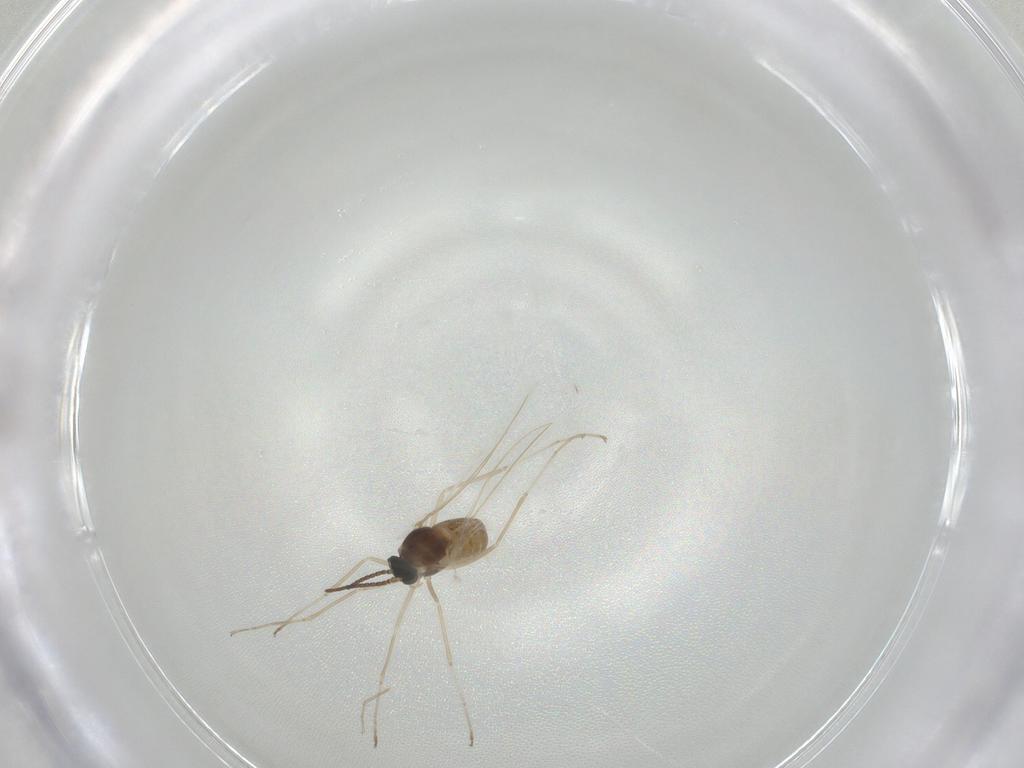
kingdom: Animalia
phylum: Arthropoda
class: Insecta
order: Diptera
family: Cecidomyiidae
